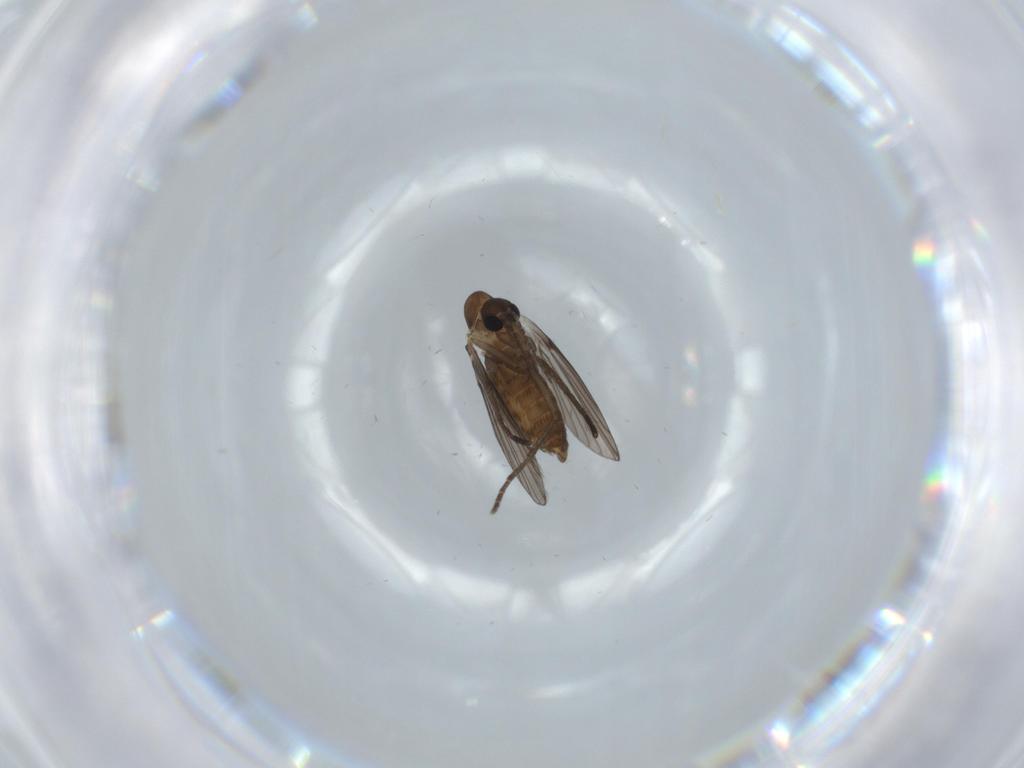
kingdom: Animalia
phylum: Arthropoda
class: Insecta
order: Diptera
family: Psychodidae
